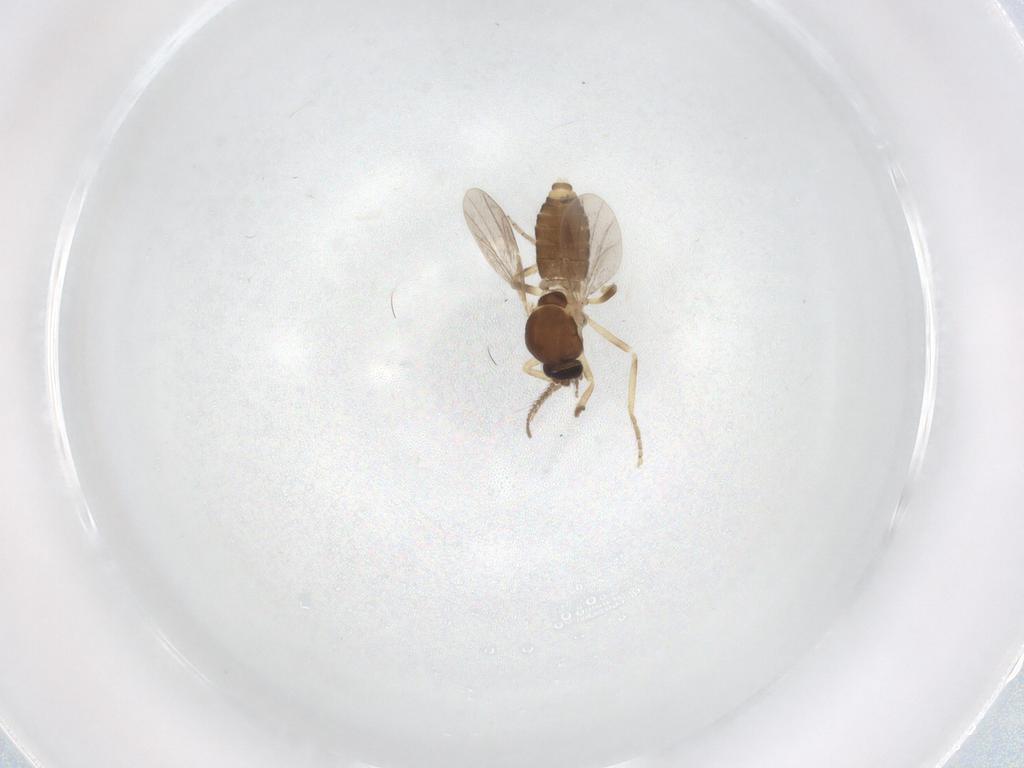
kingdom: Animalia
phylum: Arthropoda
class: Insecta
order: Diptera
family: Ceratopogonidae
